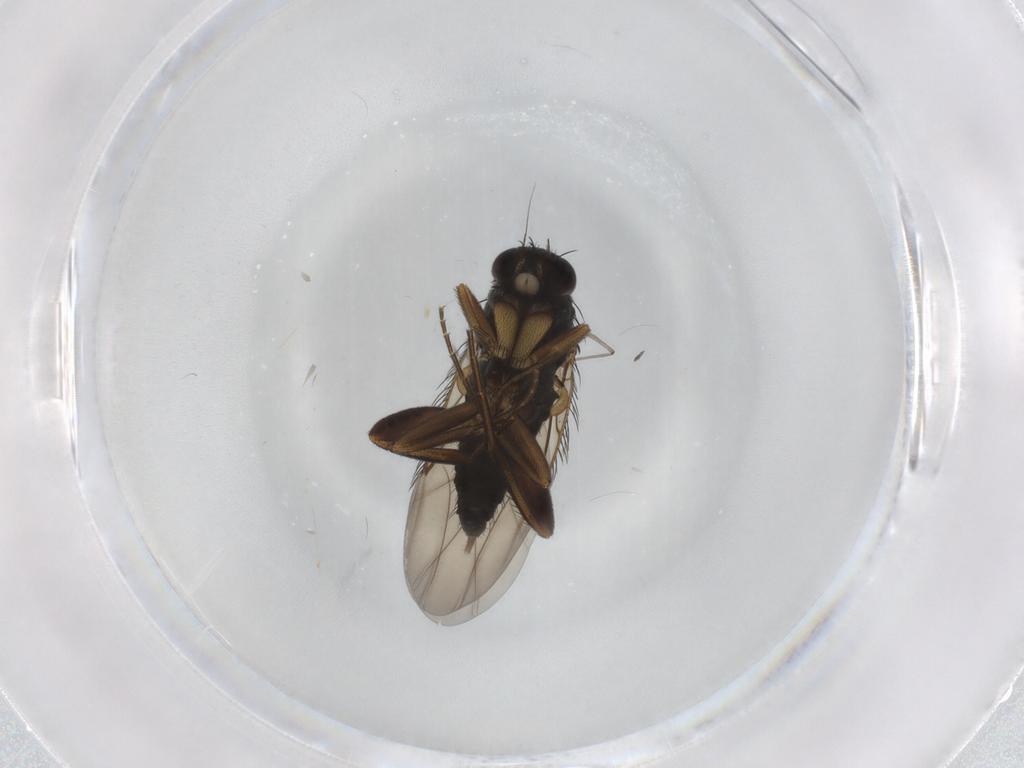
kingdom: Animalia
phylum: Arthropoda
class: Insecta
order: Diptera
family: Phoridae
